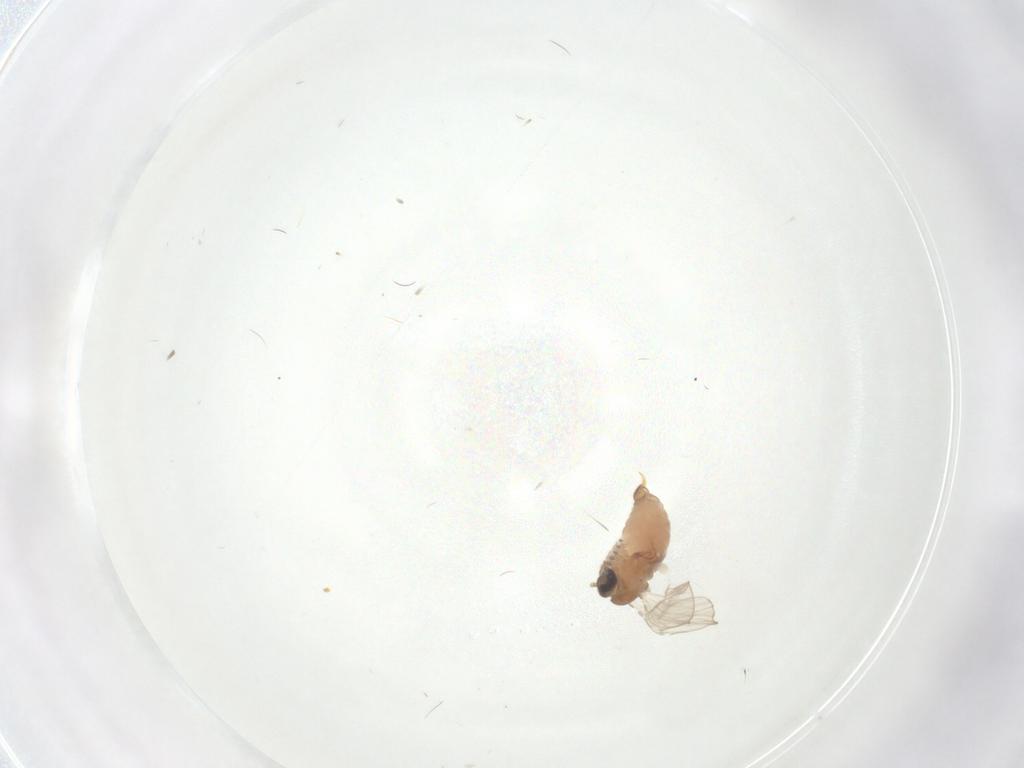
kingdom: Animalia
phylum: Arthropoda
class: Insecta
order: Diptera
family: Psychodidae
